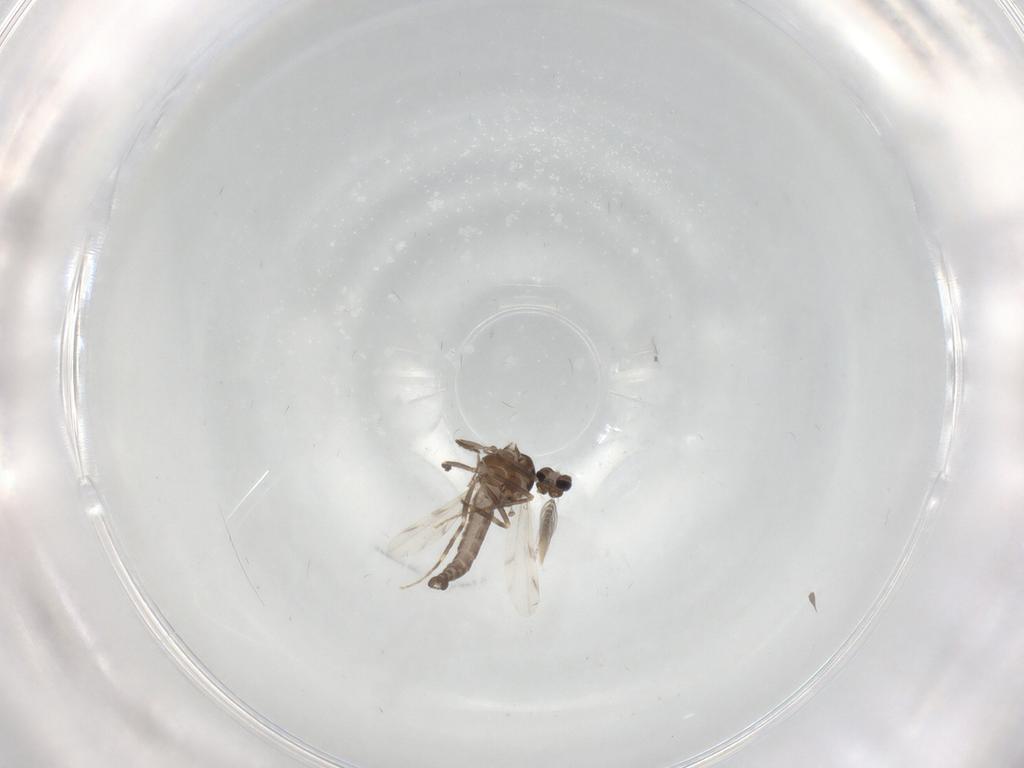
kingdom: Animalia
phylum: Arthropoda
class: Insecta
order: Diptera
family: Ceratopogonidae
